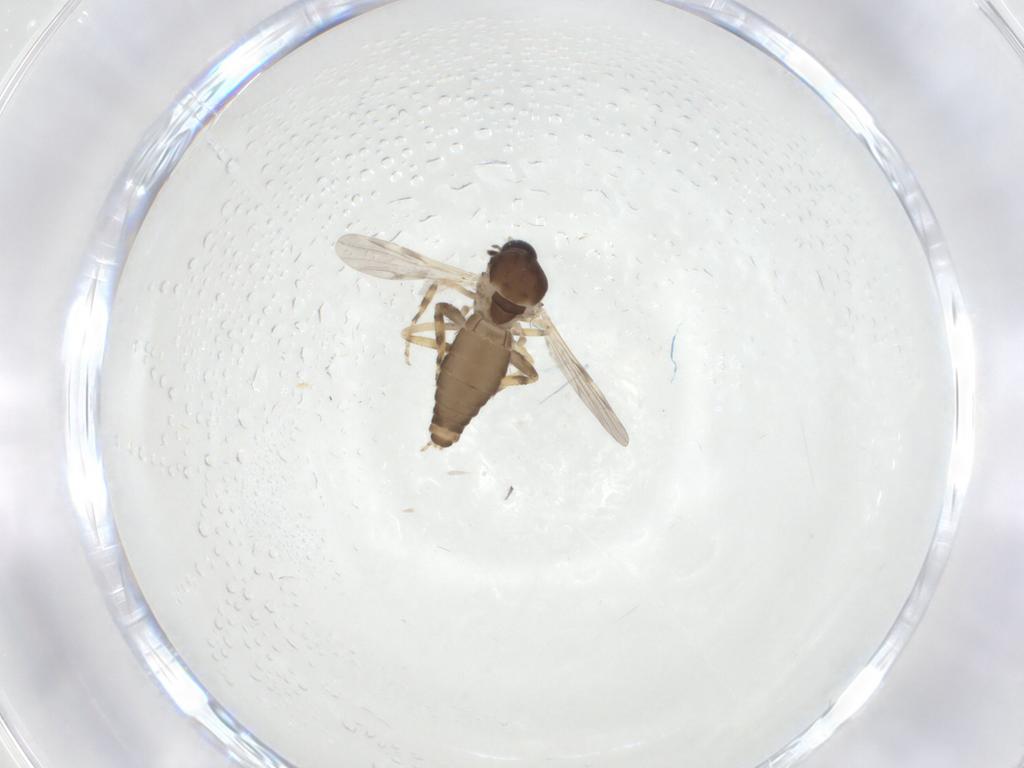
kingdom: Animalia
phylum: Arthropoda
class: Insecta
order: Diptera
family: Ceratopogonidae
